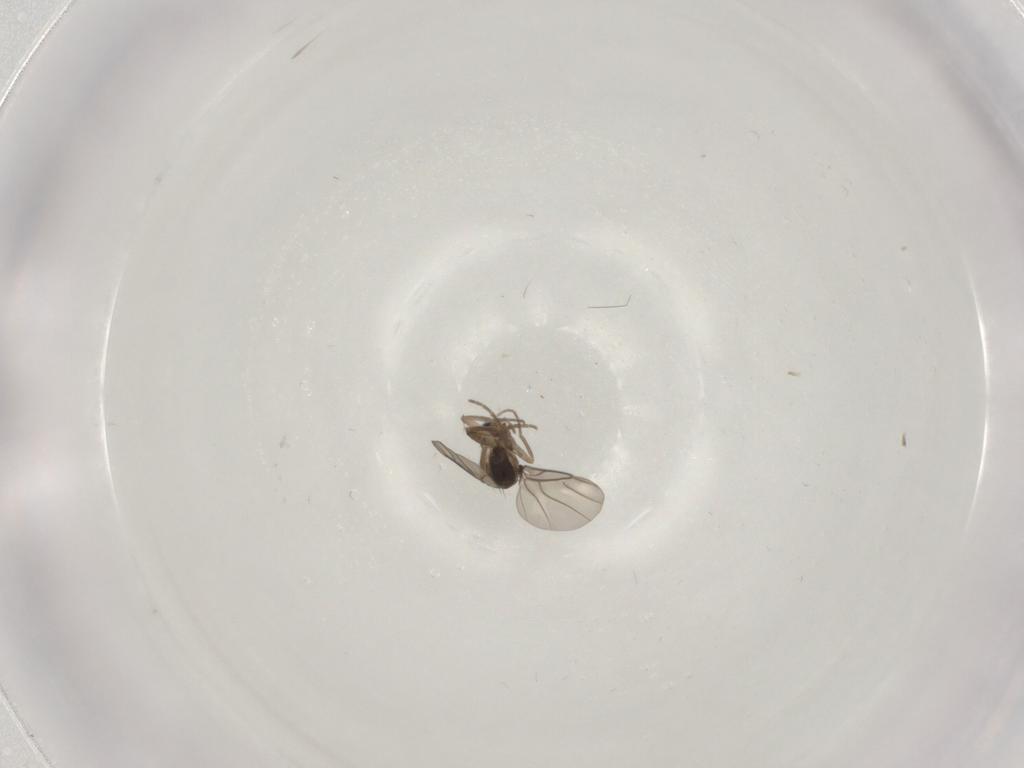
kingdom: Animalia
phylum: Arthropoda
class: Insecta
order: Diptera
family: Phoridae
